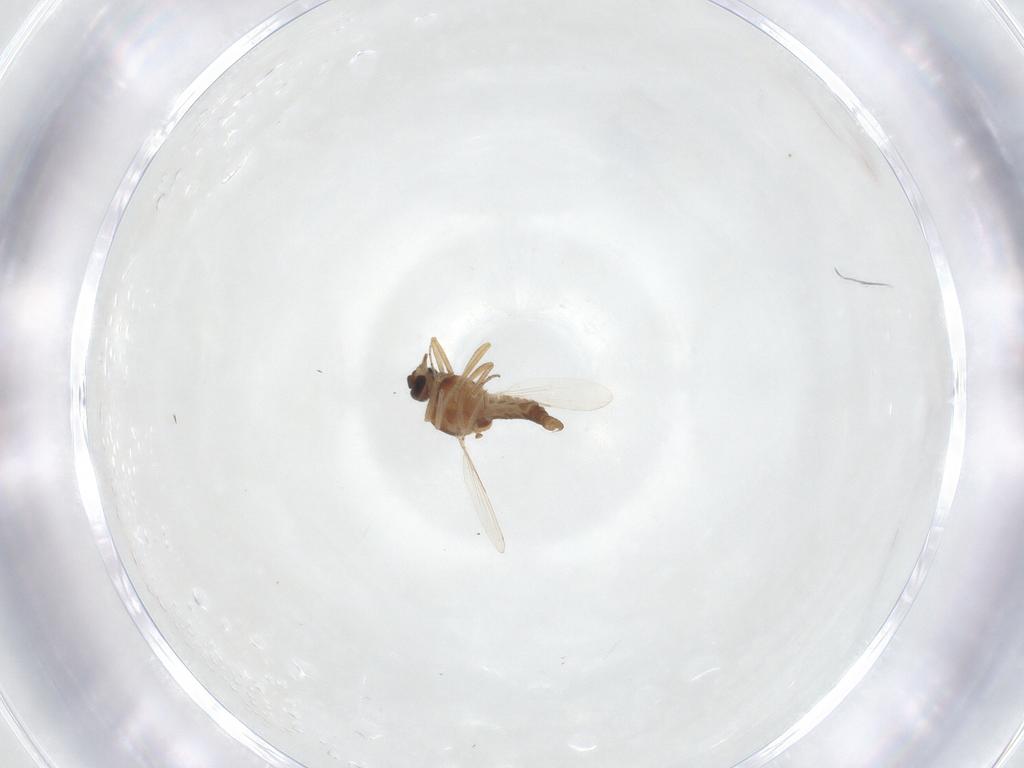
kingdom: Animalia
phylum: Arthropoda
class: Insecta
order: Diptera
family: Ceratopogonidae
